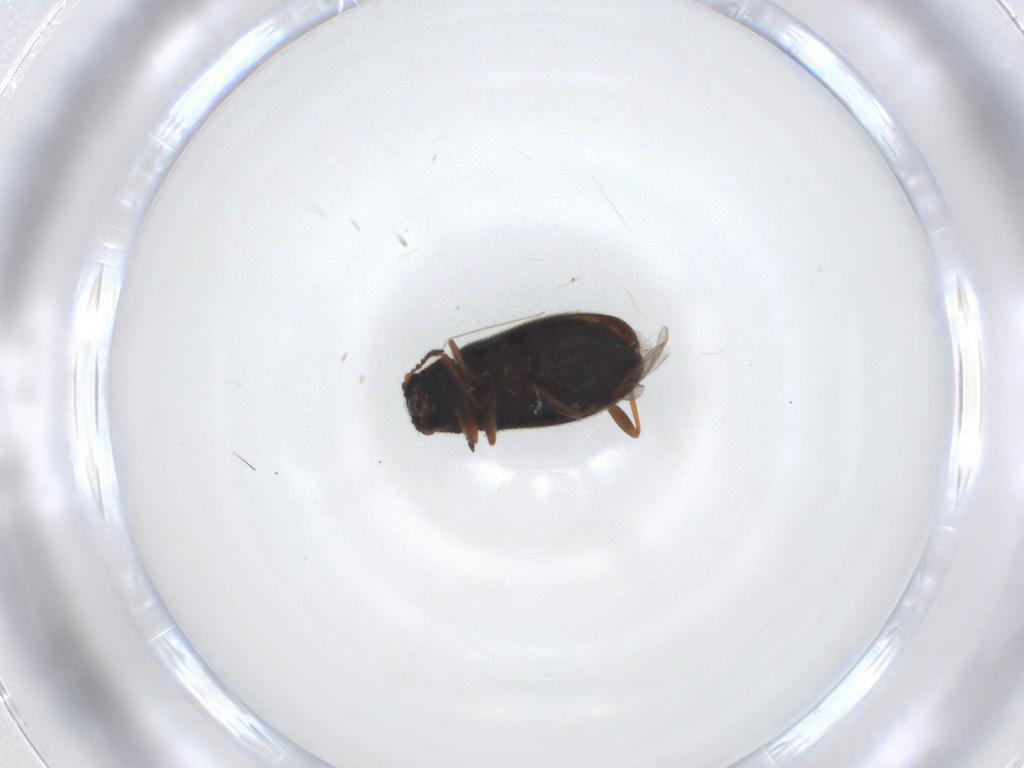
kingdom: Animalia
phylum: Arthropoda
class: Insecta
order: Coleoptera
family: Melyridae
